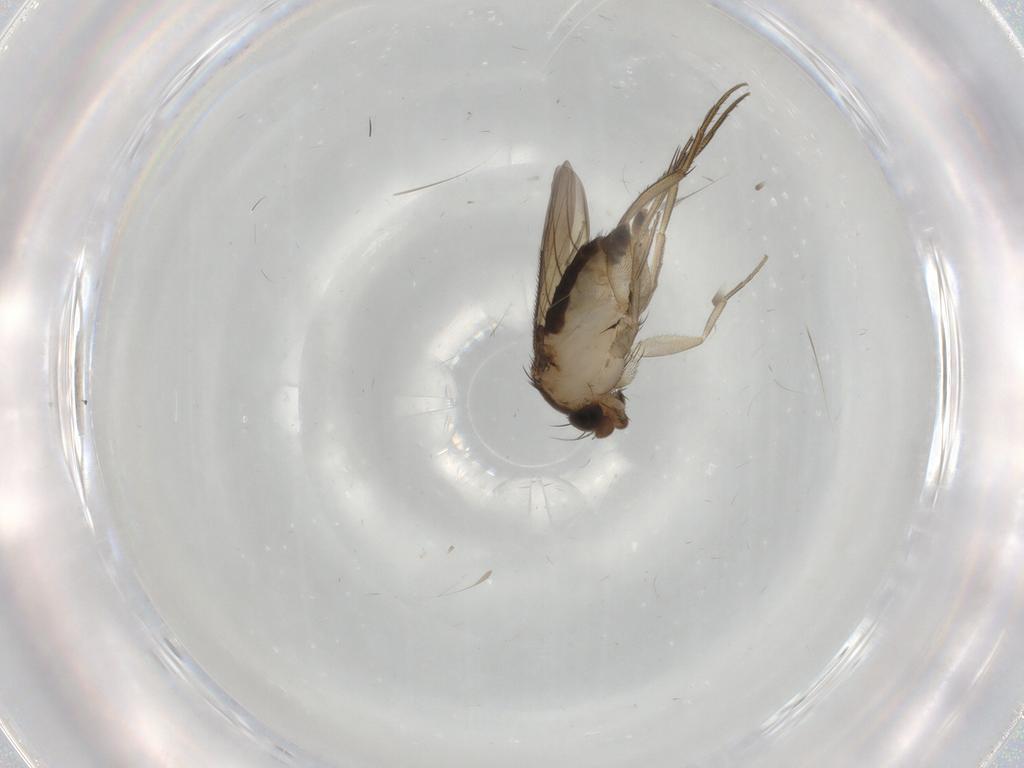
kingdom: Animalia
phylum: Arthropoda
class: Insecta
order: Diptera
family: Phoridae
